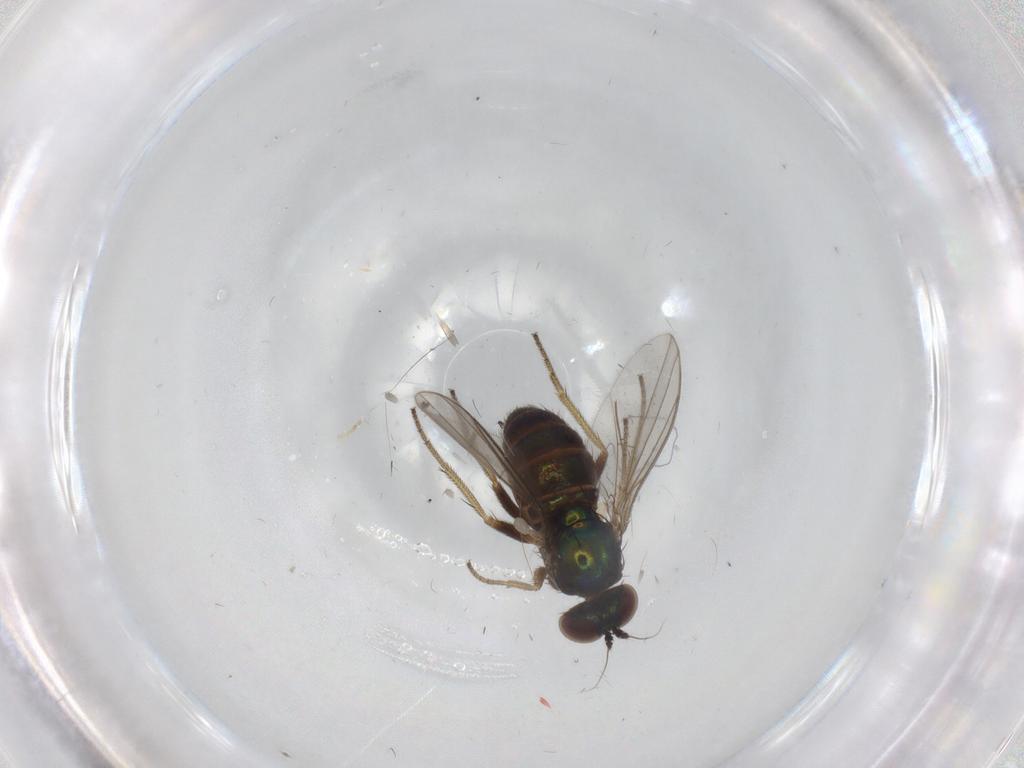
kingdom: Animalia
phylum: Arthropoda
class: Insecta
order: Diptera
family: Dolichopodidae
